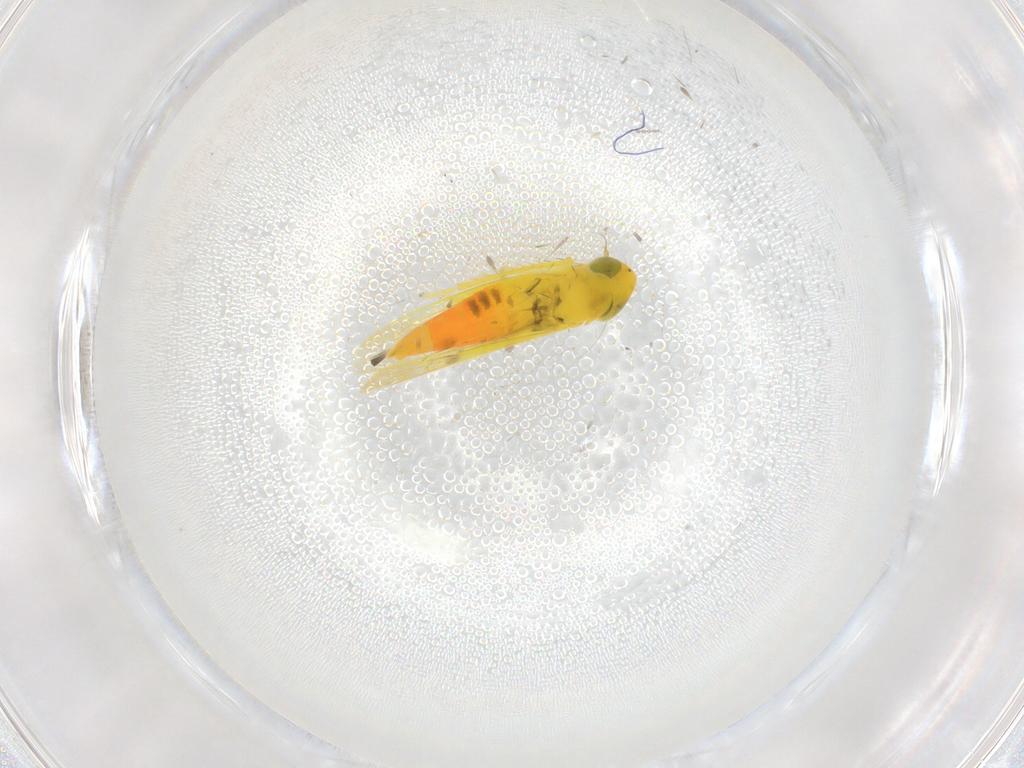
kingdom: Animalia
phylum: Arthropoda
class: Insecta
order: Hemiptera
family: Cicadellidae
